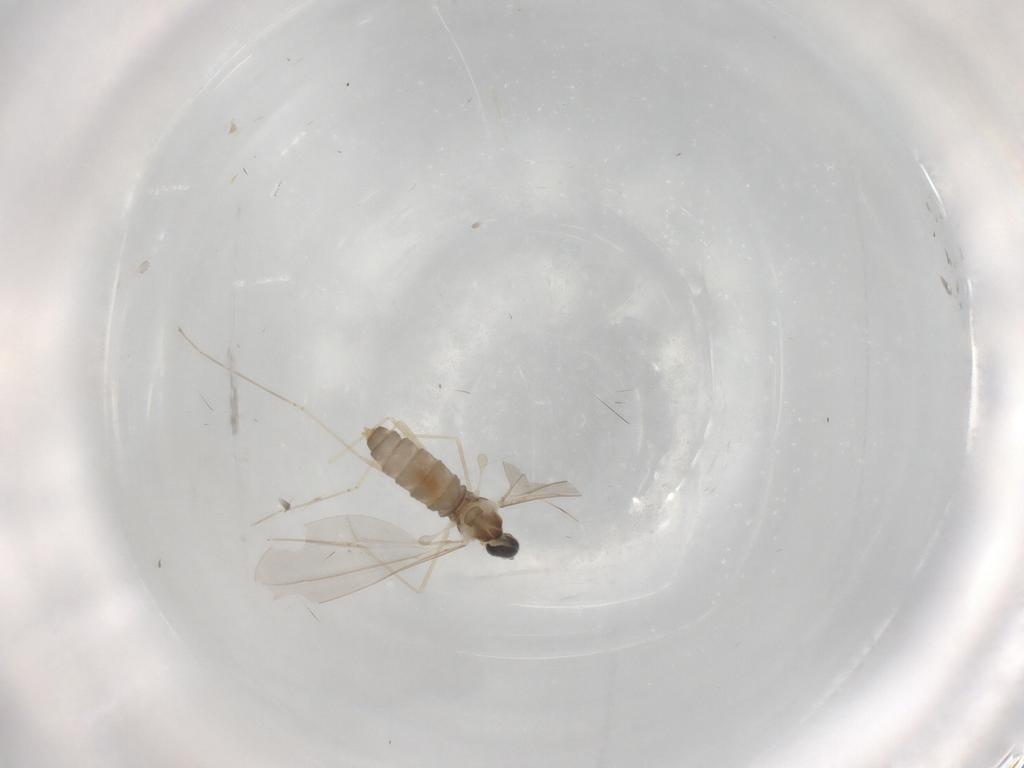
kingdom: Animalia
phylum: Arthropoda
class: Insecta
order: Diptera
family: Cecidomyiidae
